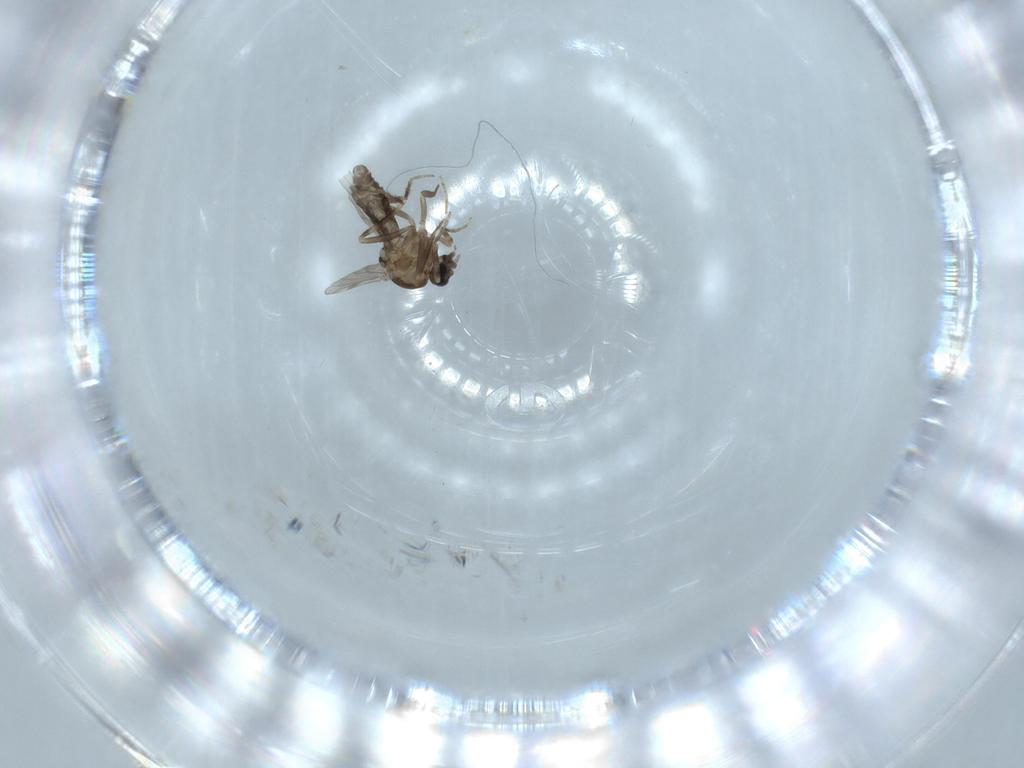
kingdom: Animalia
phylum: Arthropoda
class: Insecta
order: Diptera
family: Ceratopogonidae
